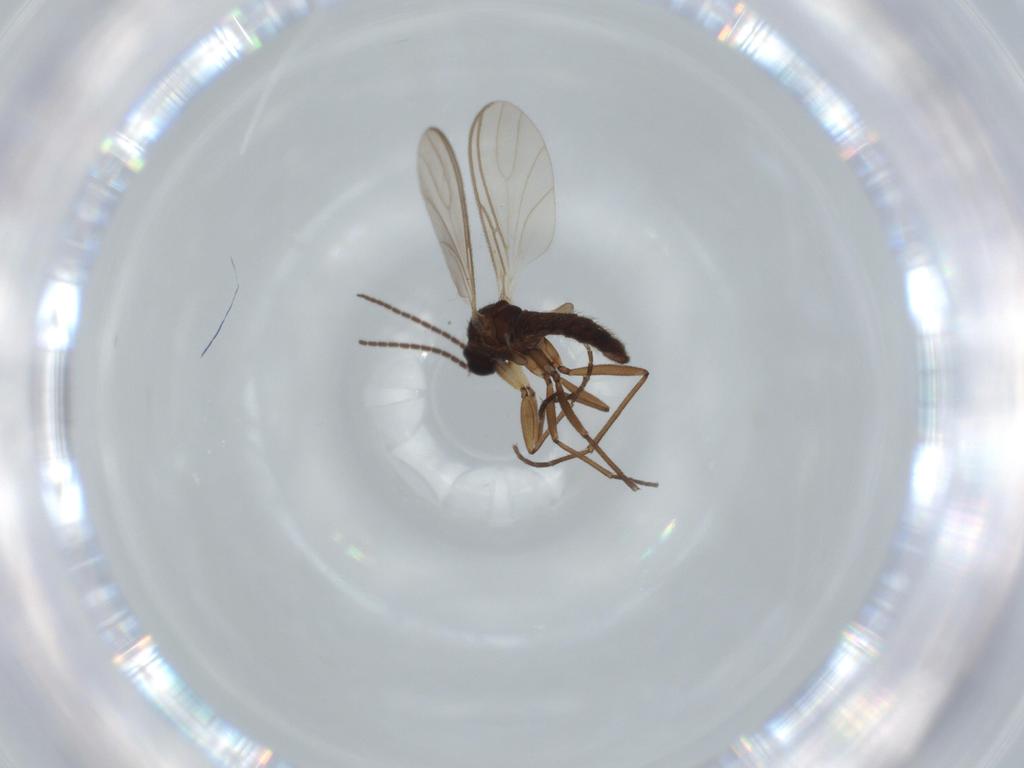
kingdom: Animalia
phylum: Arthropoda
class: Insecta
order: Diptera
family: Sciaridae
